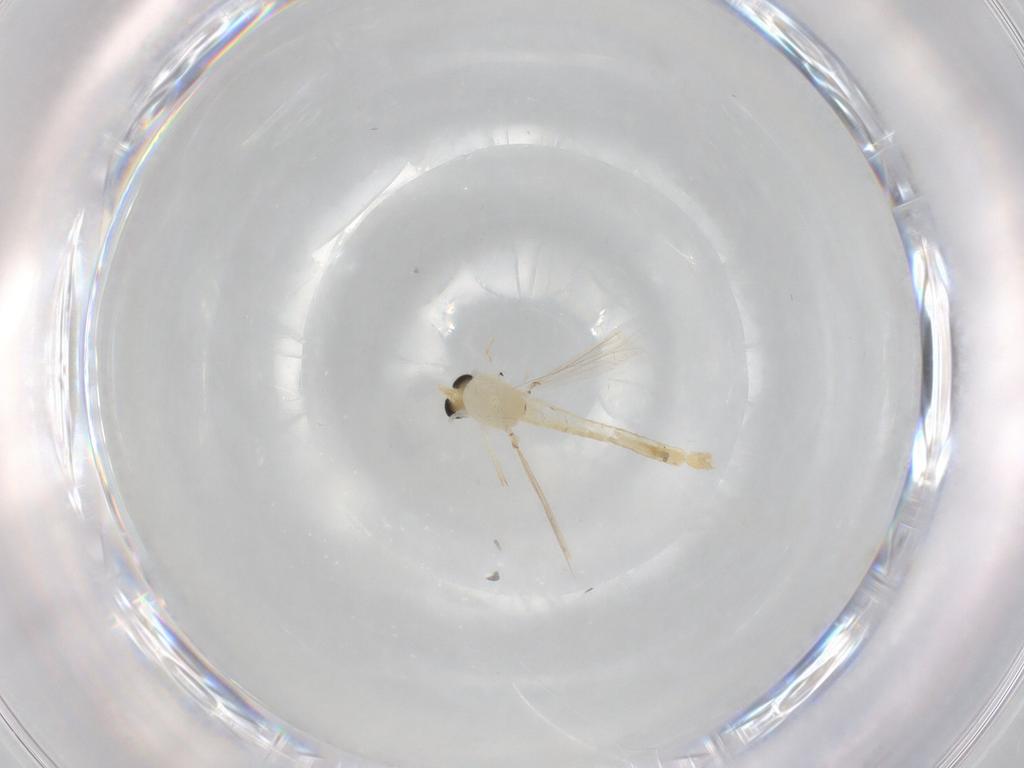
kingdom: Animalia
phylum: Arthropoda
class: Insecta
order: Diptera
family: Chironomidae
